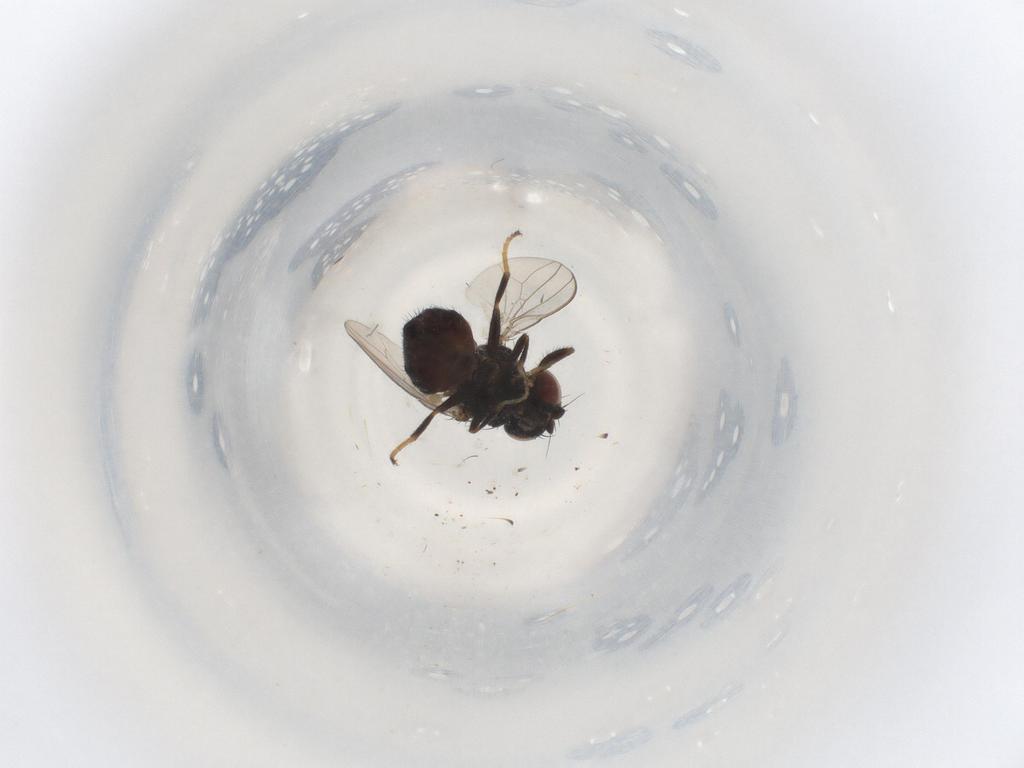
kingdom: Animalia
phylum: Arthropoda
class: Insecta
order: Diptera
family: Milichiidae
